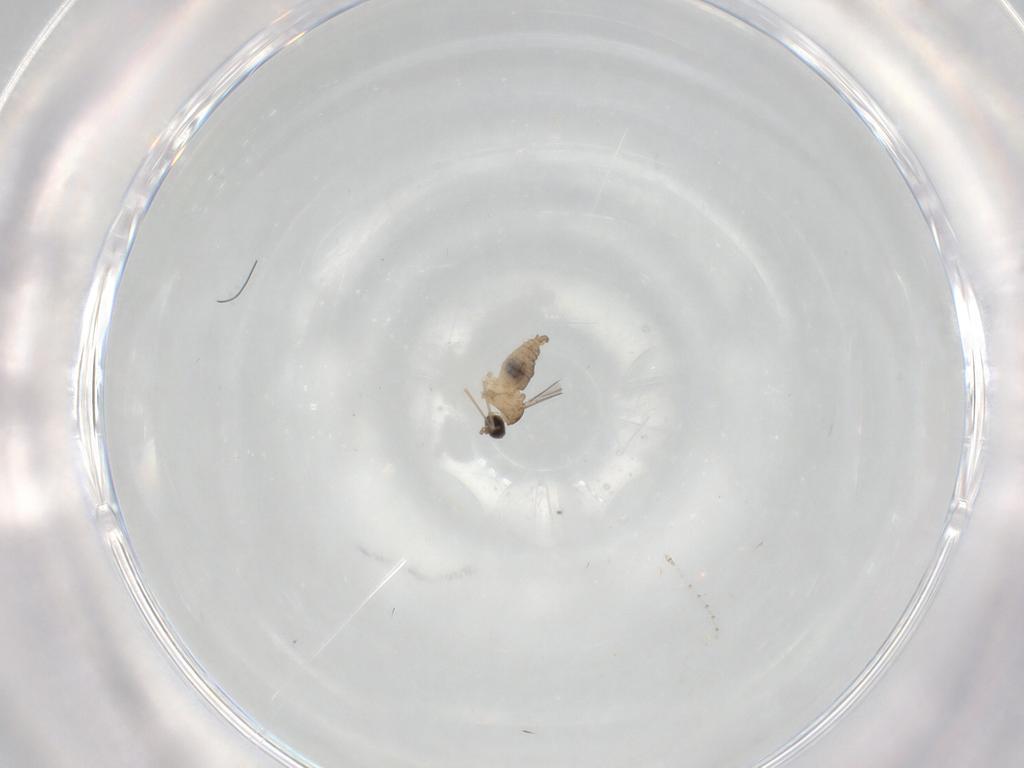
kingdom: Animalia
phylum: Arthropoda
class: Insecta
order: Diptera
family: Cecidomyiidae
